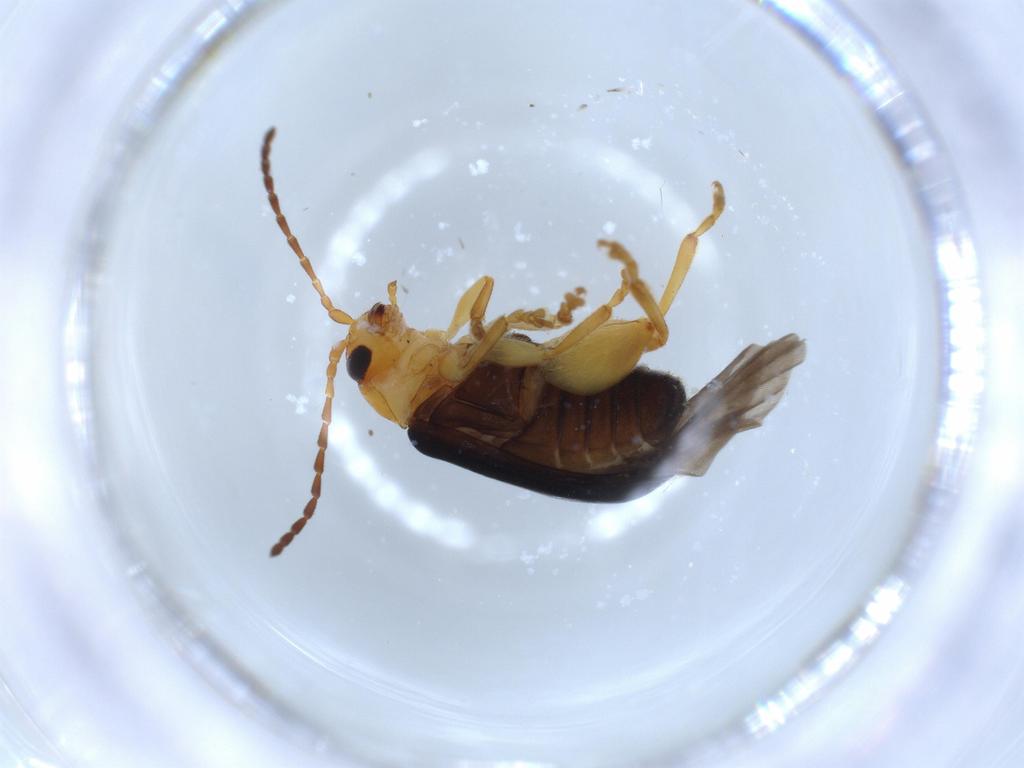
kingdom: Animalia
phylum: Arthropoda
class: Insecta
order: Coleoptera
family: Chrysomelidae
